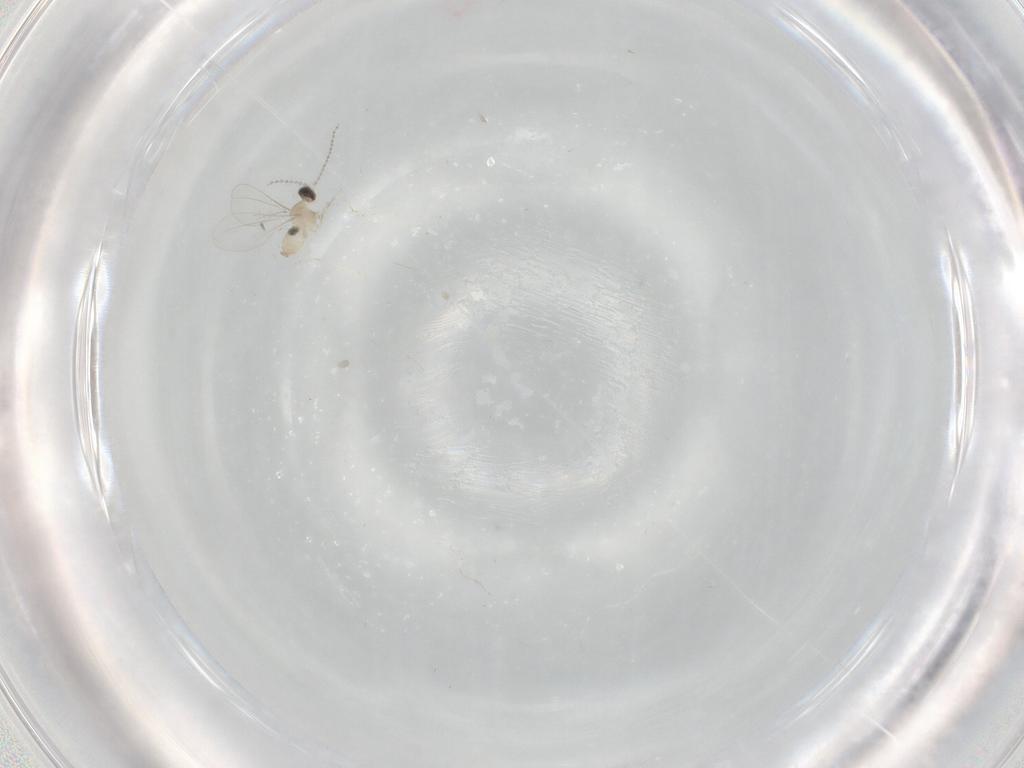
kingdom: Animalia
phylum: Arthropoda
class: Insecta
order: Diptera
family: Cecidomyiidae
